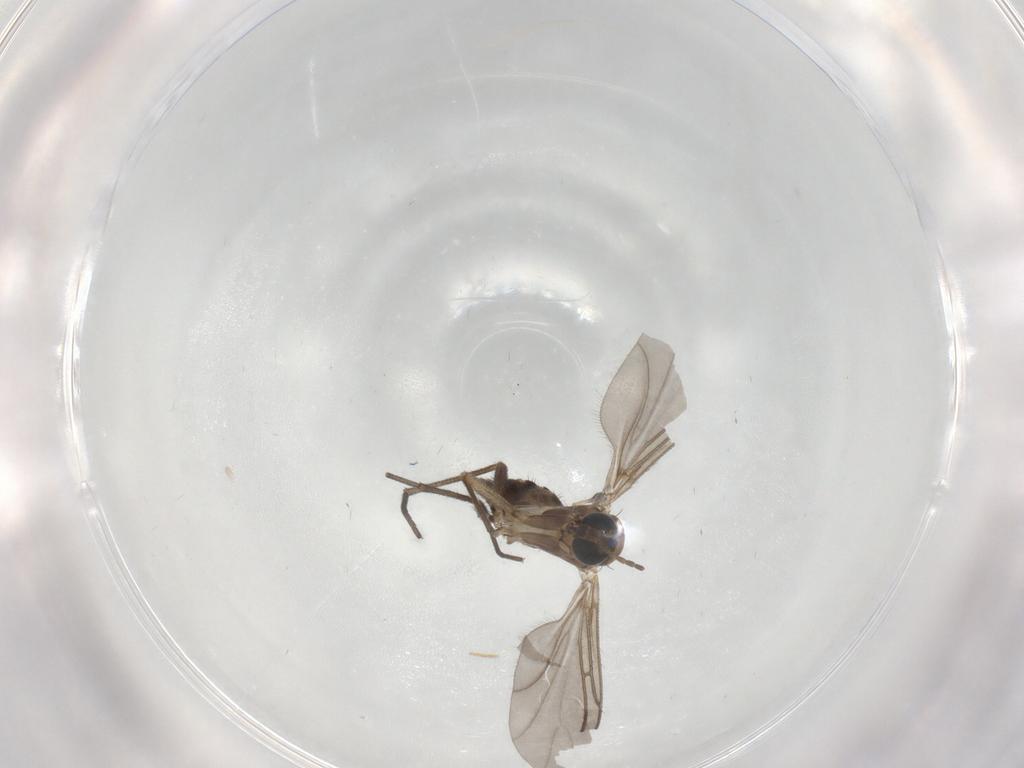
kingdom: Animalia
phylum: Arthropoda
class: Insecta
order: Diptera
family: Sciaridae
